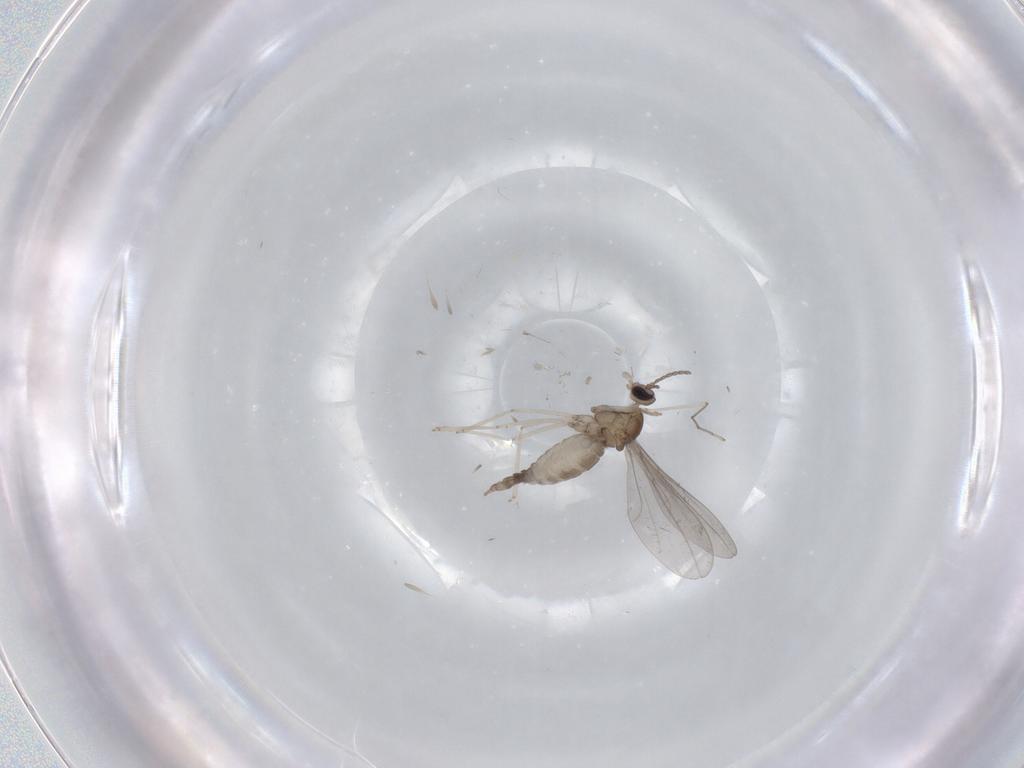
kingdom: Animalia
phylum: Arthropoda
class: Insecta
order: Diptera
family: Cecidomyiidae
